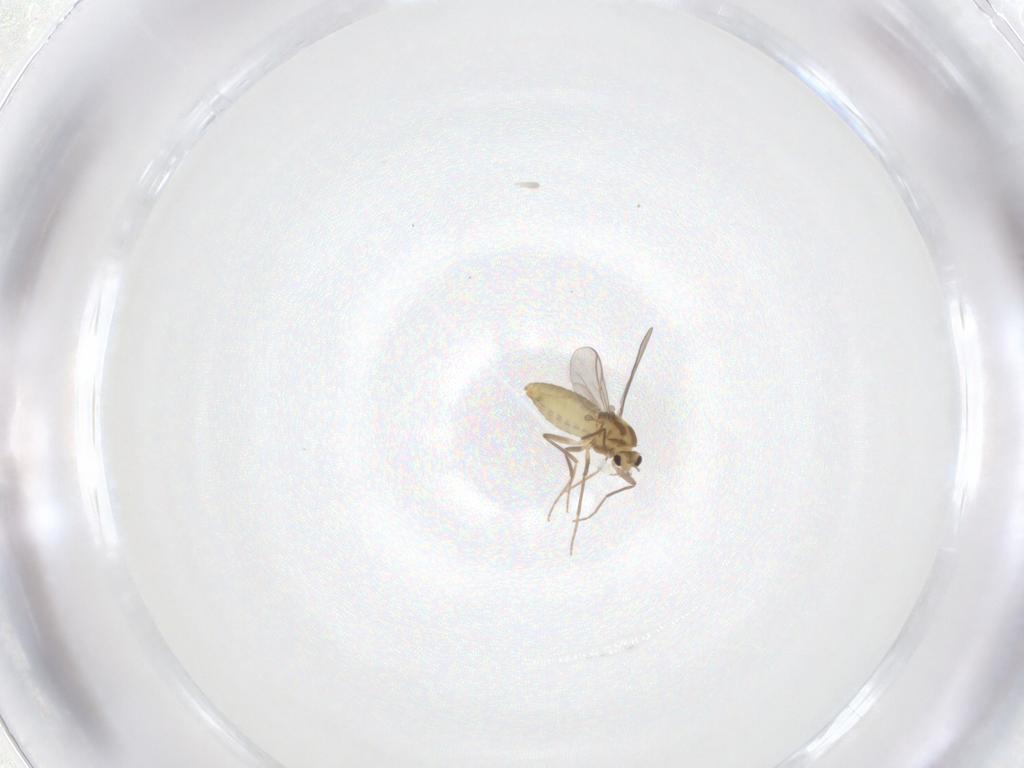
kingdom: Animalia
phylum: Arthropoda
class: Insecta
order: Diptera
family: Chironomidae
